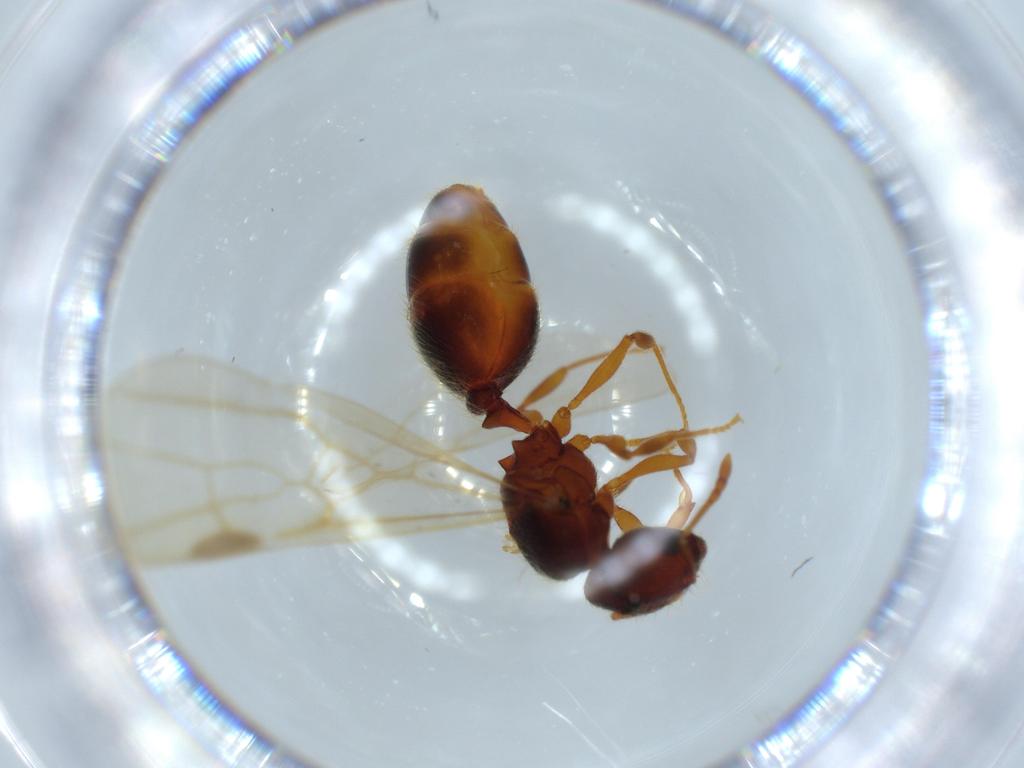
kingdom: Animalia
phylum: Arthropoda
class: Insecta
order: Hymenoptera
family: Formicidae
